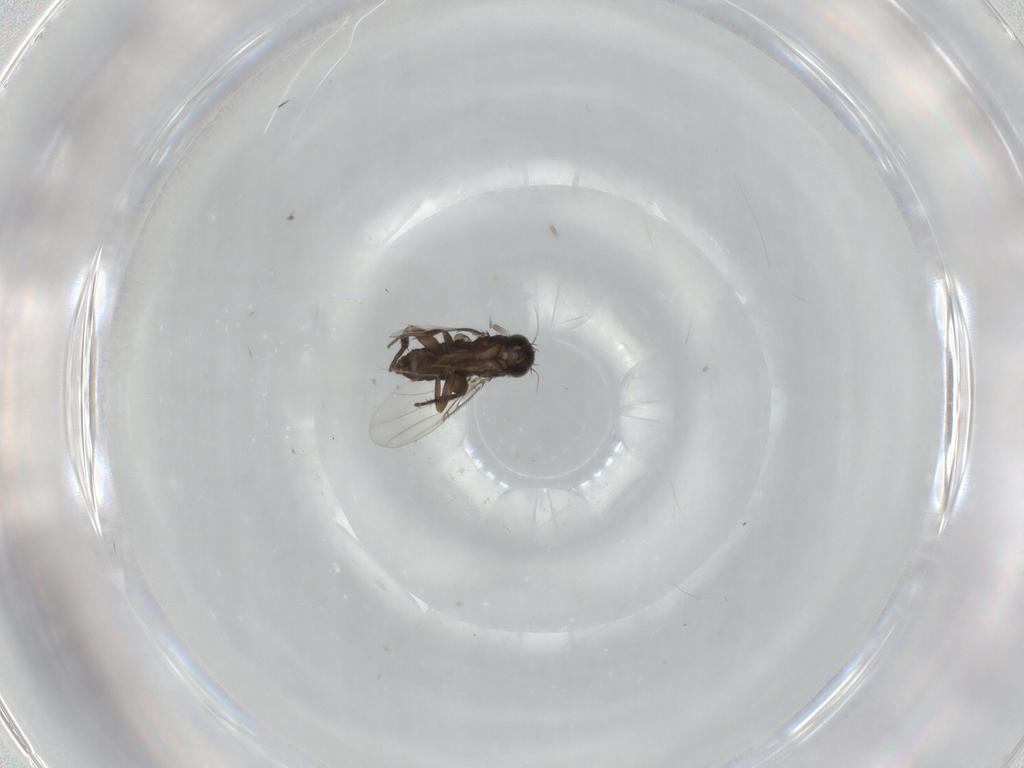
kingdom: Animalia
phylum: Arthropoda
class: Insecta
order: Diptera
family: Phoridae
